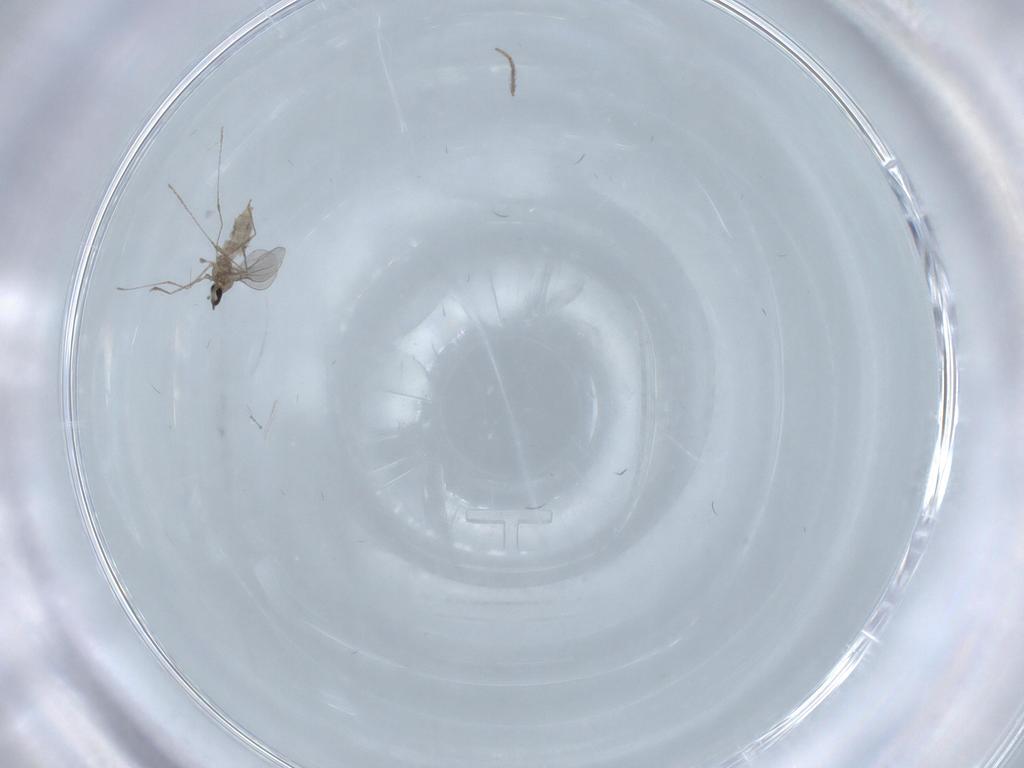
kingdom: Animalia
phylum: Arthropoda
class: Insecta
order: Diptera
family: Chironomidae
